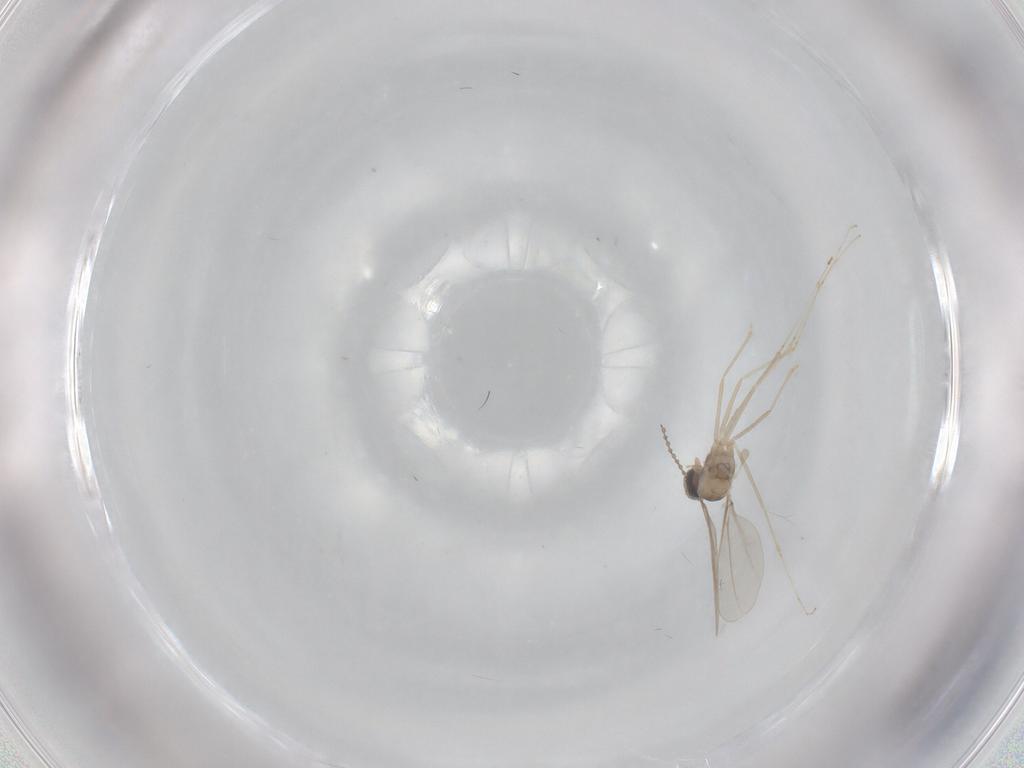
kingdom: Animalia
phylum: Arthropoda
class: Insecta
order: Diptera
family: Cecidomyiidae
